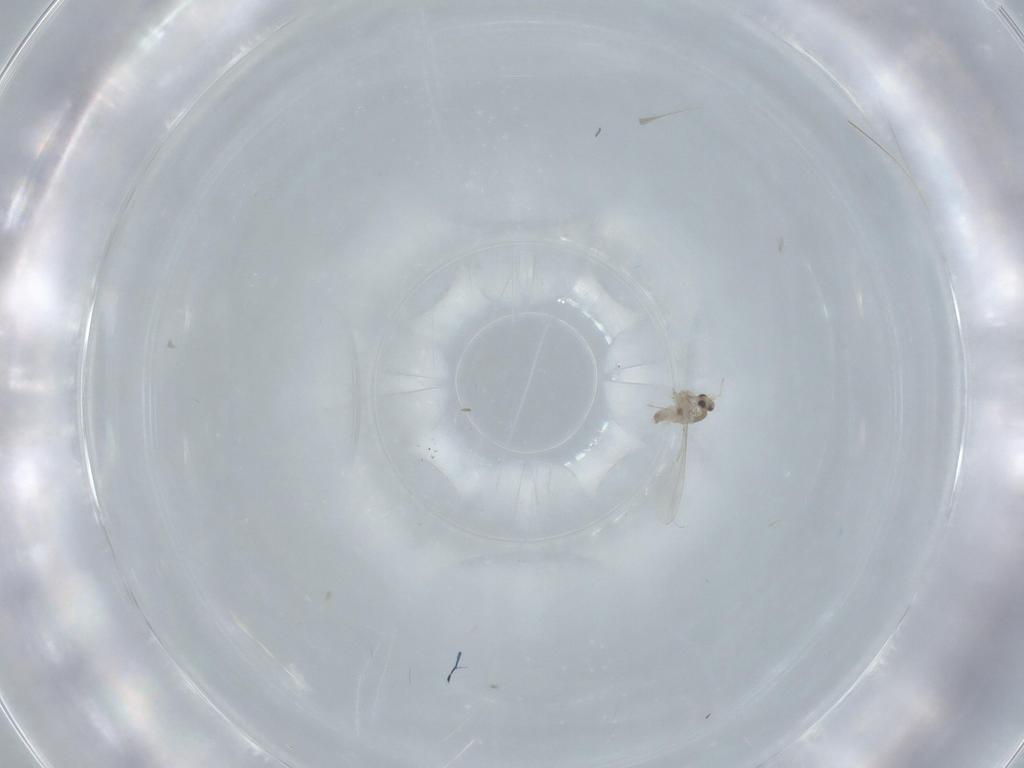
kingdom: Animalia
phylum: Arthropoda
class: Insecta
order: Diptera
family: Cecidomyiidae
